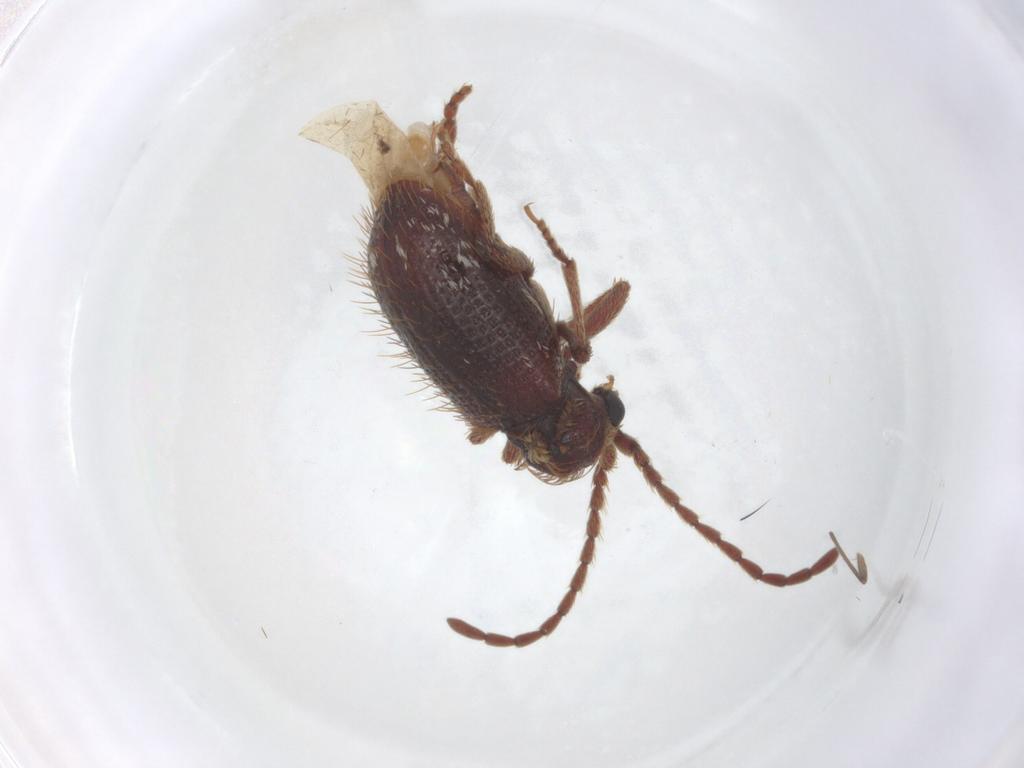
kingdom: Animalia
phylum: Arthropoda
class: Insecta
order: Coleoptera
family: Ptinidae
